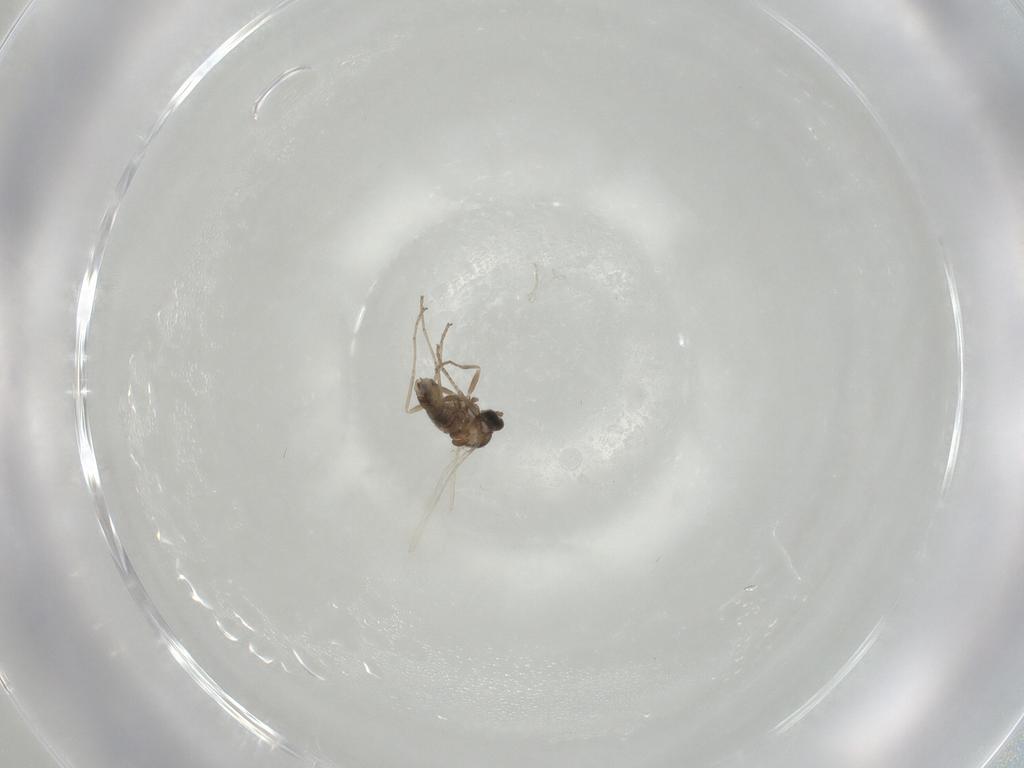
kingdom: Animalia
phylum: Arthropoda
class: Insecta
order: Diptera
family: Cecidomyiidae
